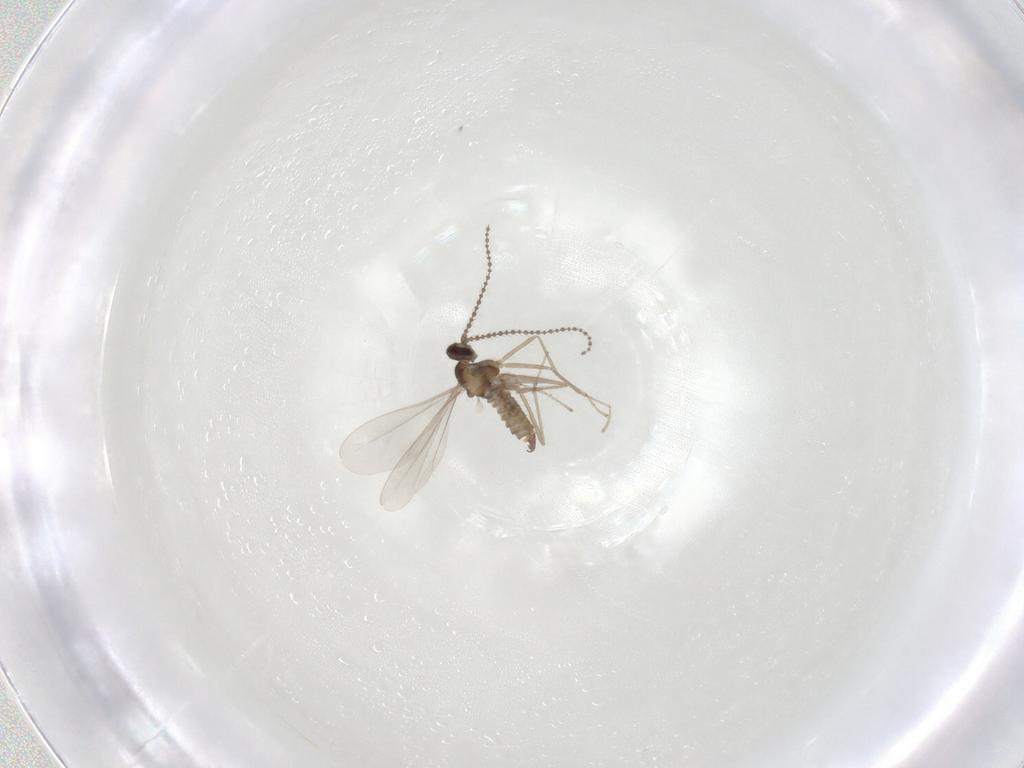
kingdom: Animalia
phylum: Arthropoda
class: Insecta
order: Diptera
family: Cecidomyiidae
